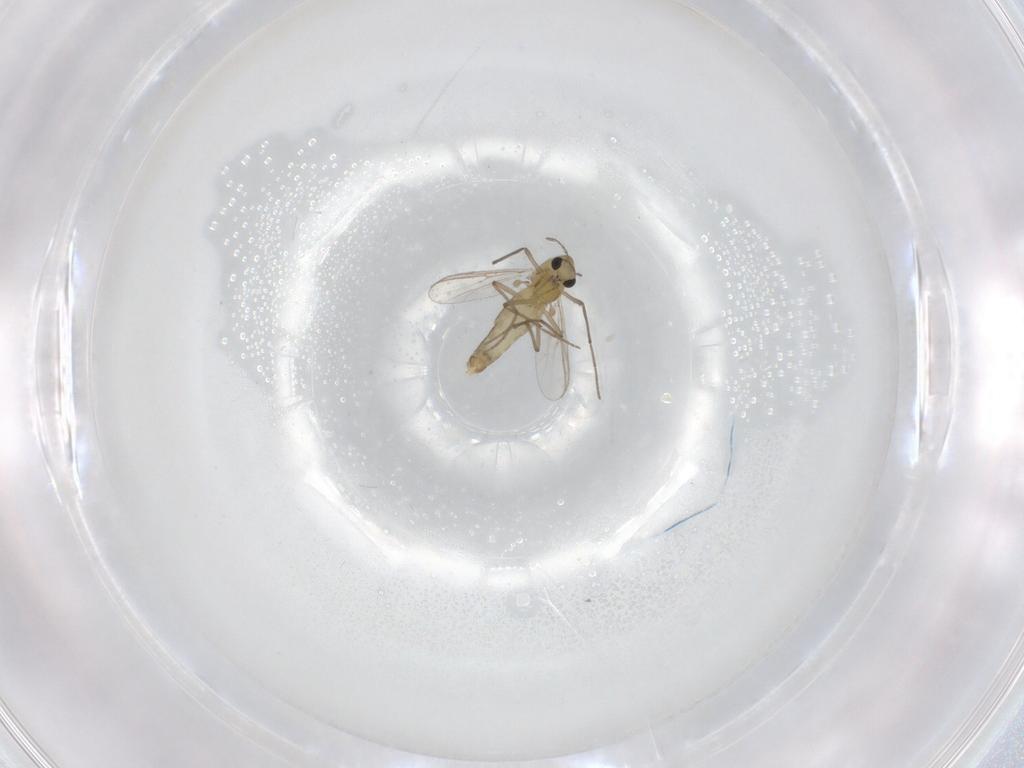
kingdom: Animalia
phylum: Arthropoda
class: Insecta
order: Diptera
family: Chironomidae
